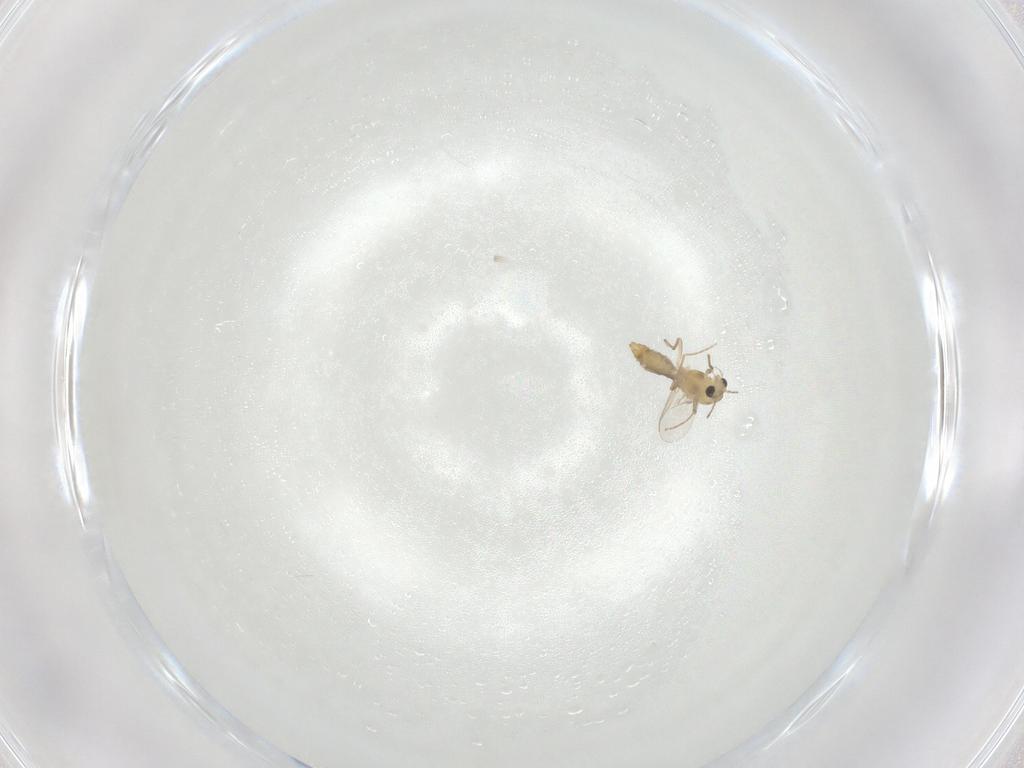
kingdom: Animalia
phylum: Arthropoda
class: Insecta
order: Diptera
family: Chironomidae
